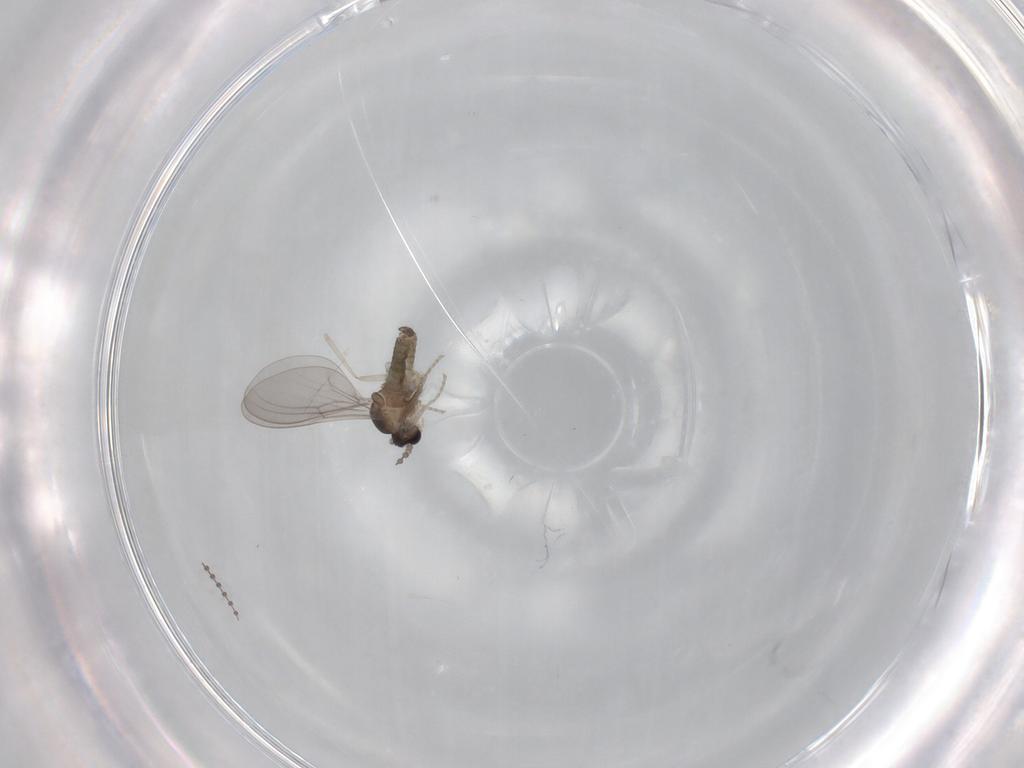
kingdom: Animalia
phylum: Arthropoda
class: Insecta
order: Diptera
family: Cecidomyiidae
